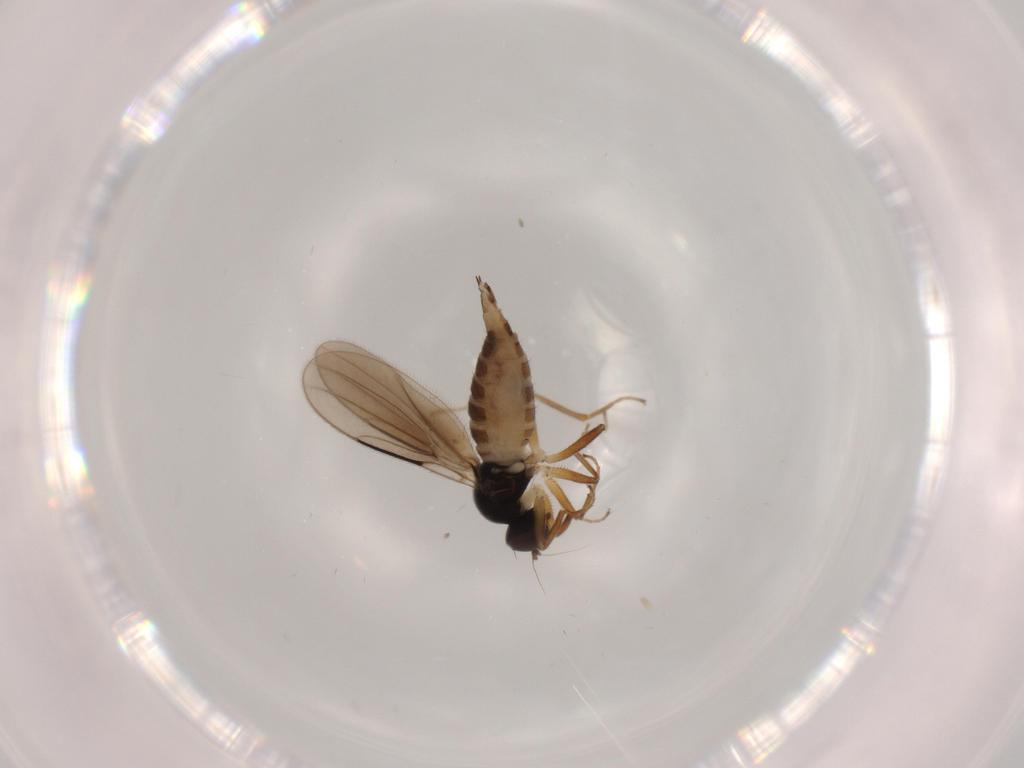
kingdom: Animalia
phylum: Arthropoda
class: Insecta
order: Diptera
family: Hybotidae
